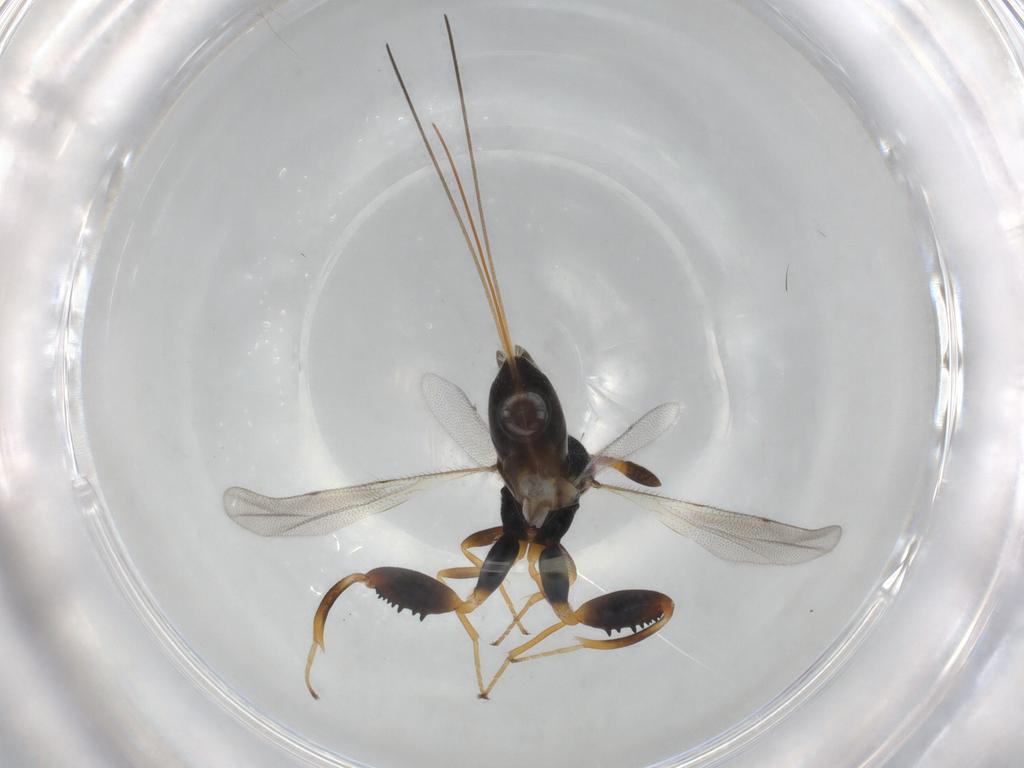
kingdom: Animalia
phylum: Arthropoda
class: Insecta
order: Hymenoptera
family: Torymidae
